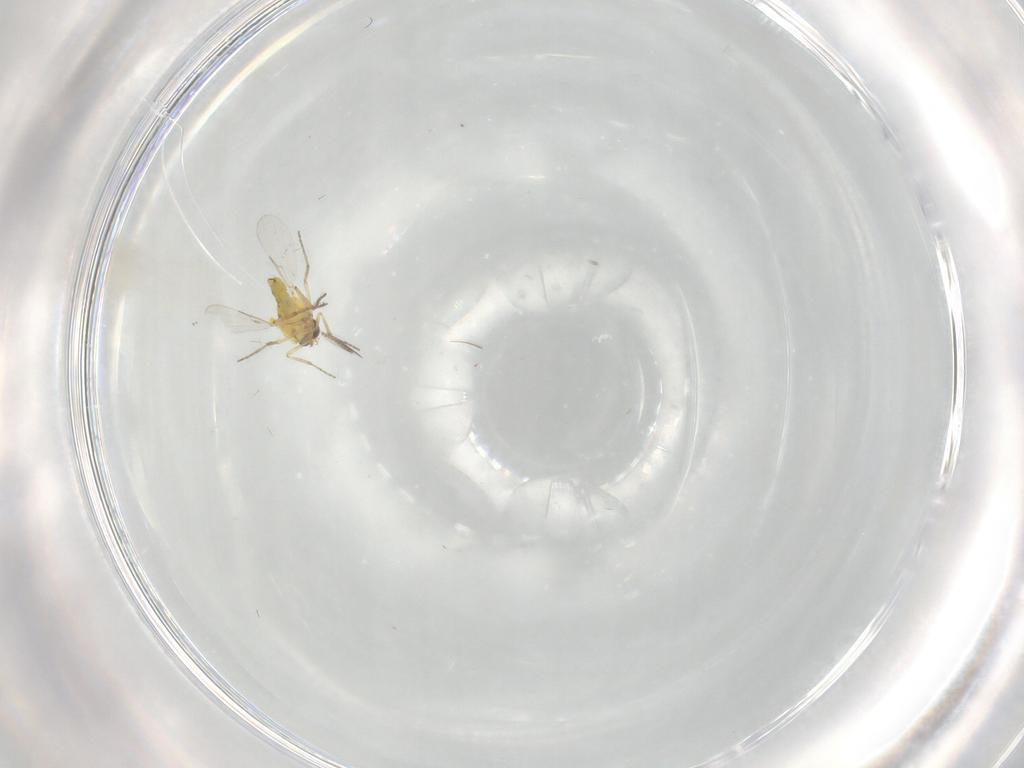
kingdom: Animalia
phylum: Arthropoda
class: Insecta
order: Diptera
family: Ceratopogonidae
